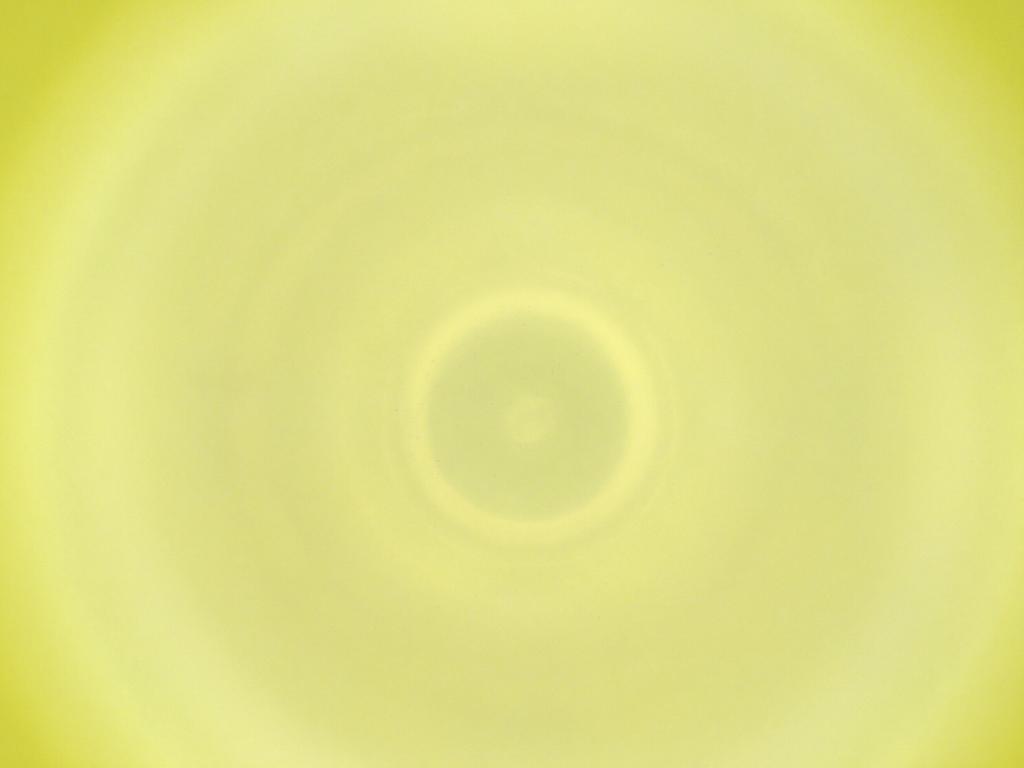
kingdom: Animalia
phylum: Arthropoda
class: Insecta
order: Diptera
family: Cecidomyiidae
